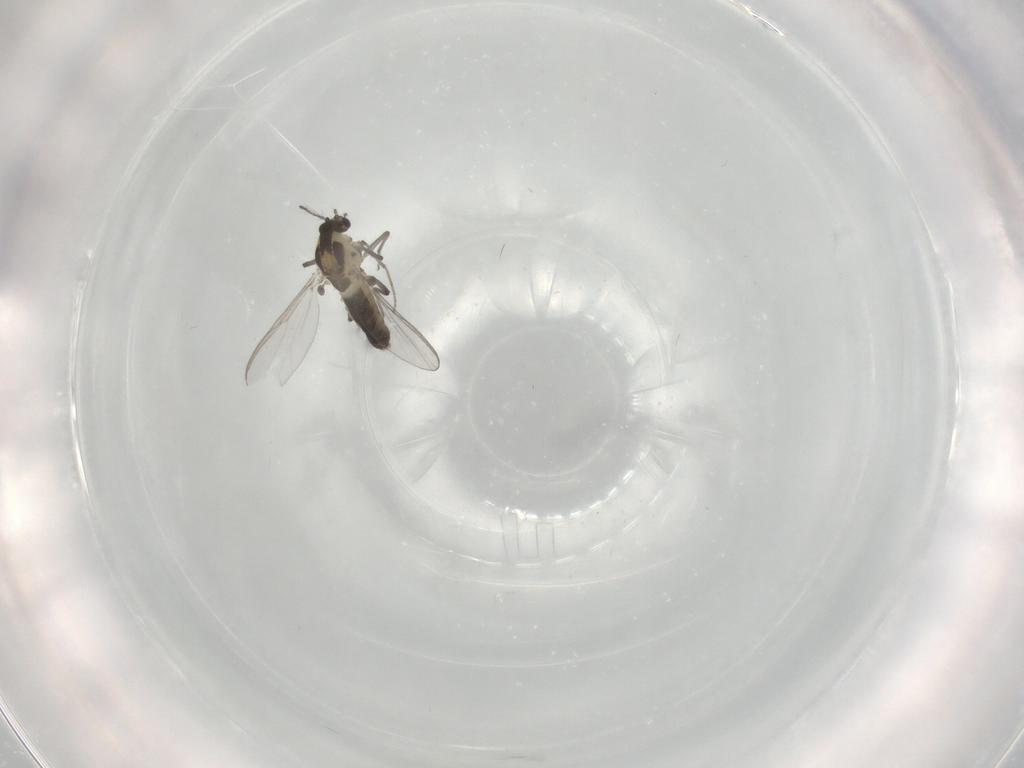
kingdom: Animalia
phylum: Arthropoda
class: Insecta
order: Diptera
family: Chironomidae
